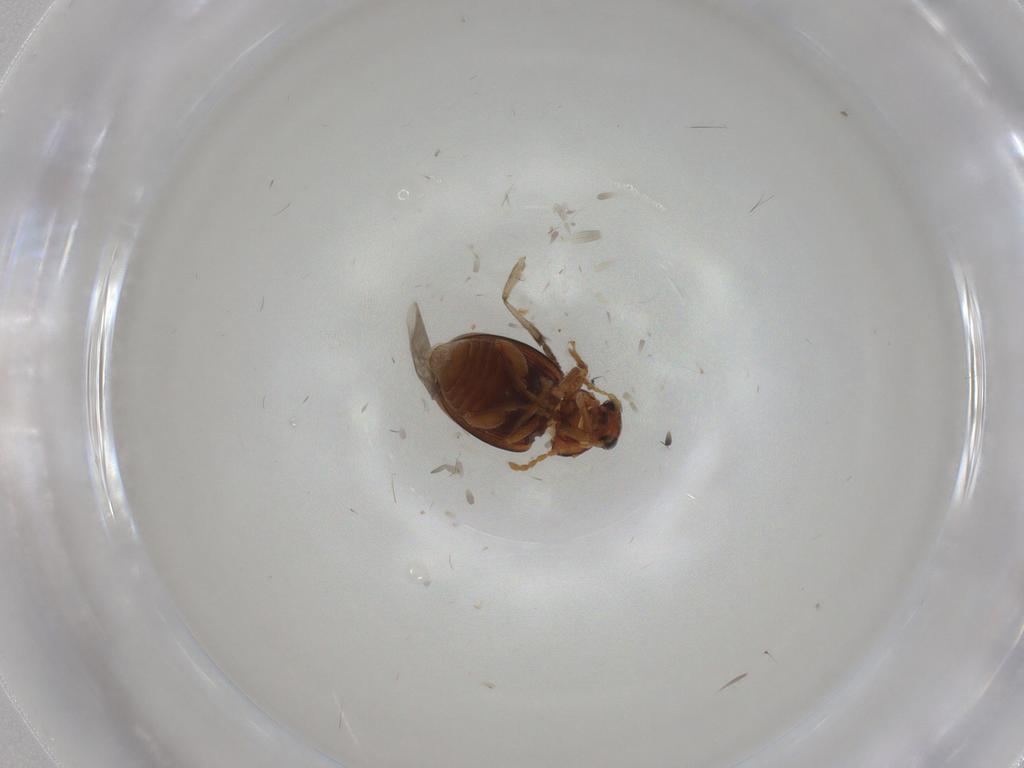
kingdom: Animalia
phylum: Arthropoda
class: Insecta
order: Coleoptera
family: Chrysomelidae
